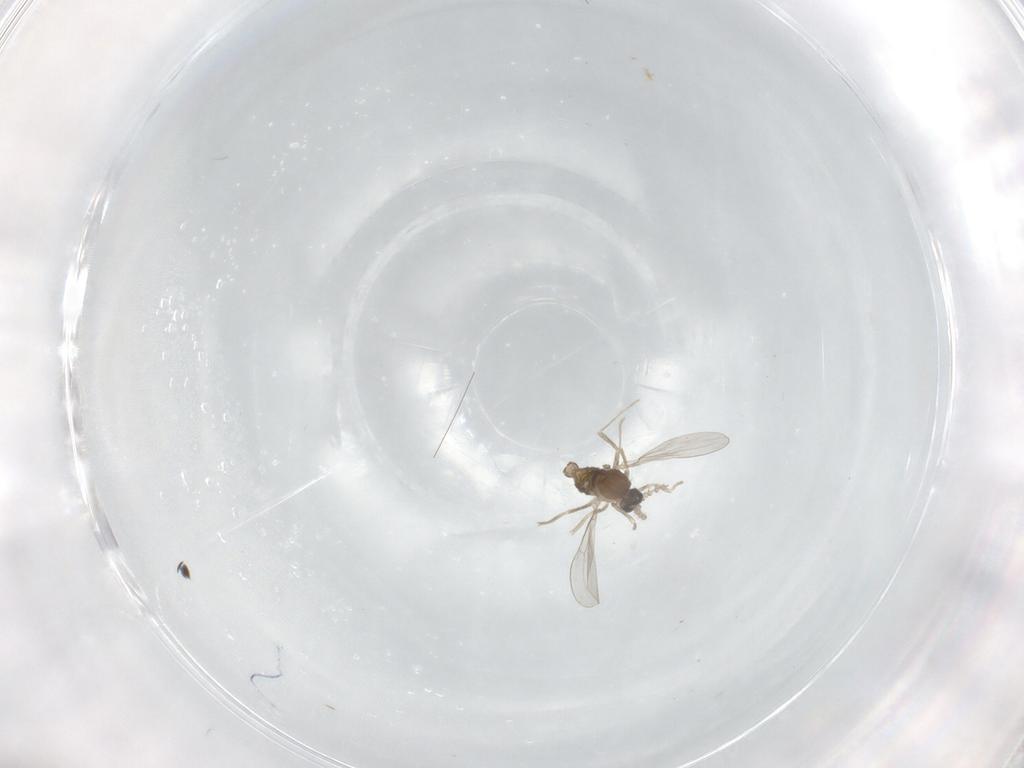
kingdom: Animalia
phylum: Arthropoda
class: Insecta
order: Diptera
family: Cecidomyiidae
